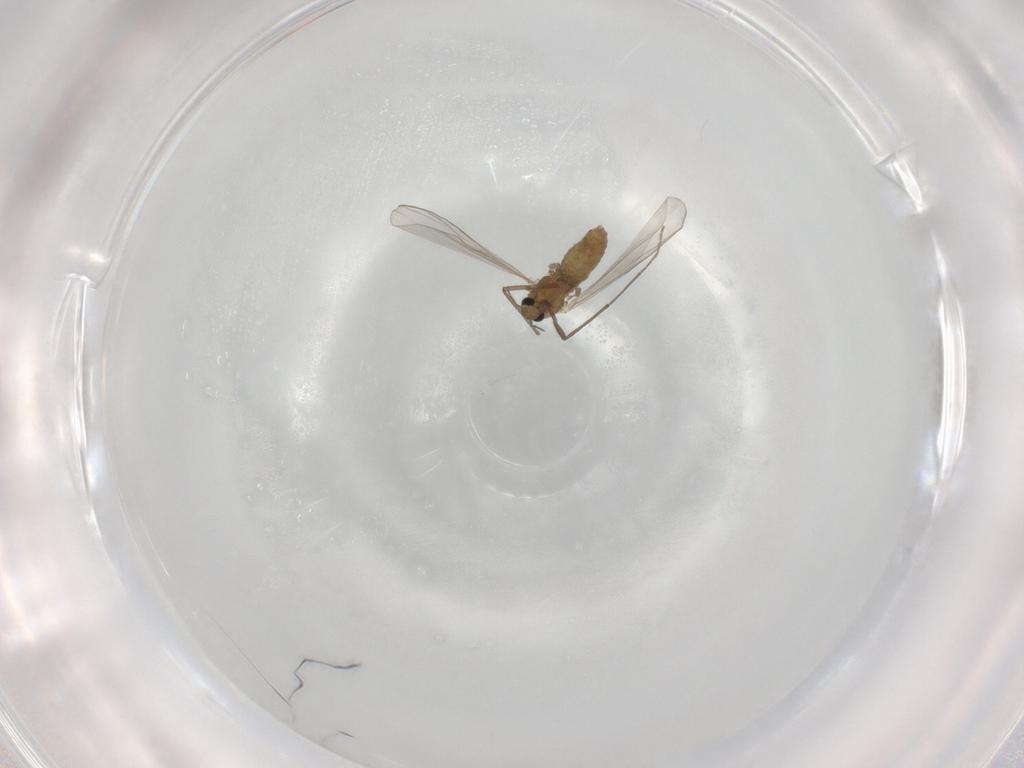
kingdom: Animalia
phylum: Arthropoda
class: Insecta
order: Diptera
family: Chironomidae
